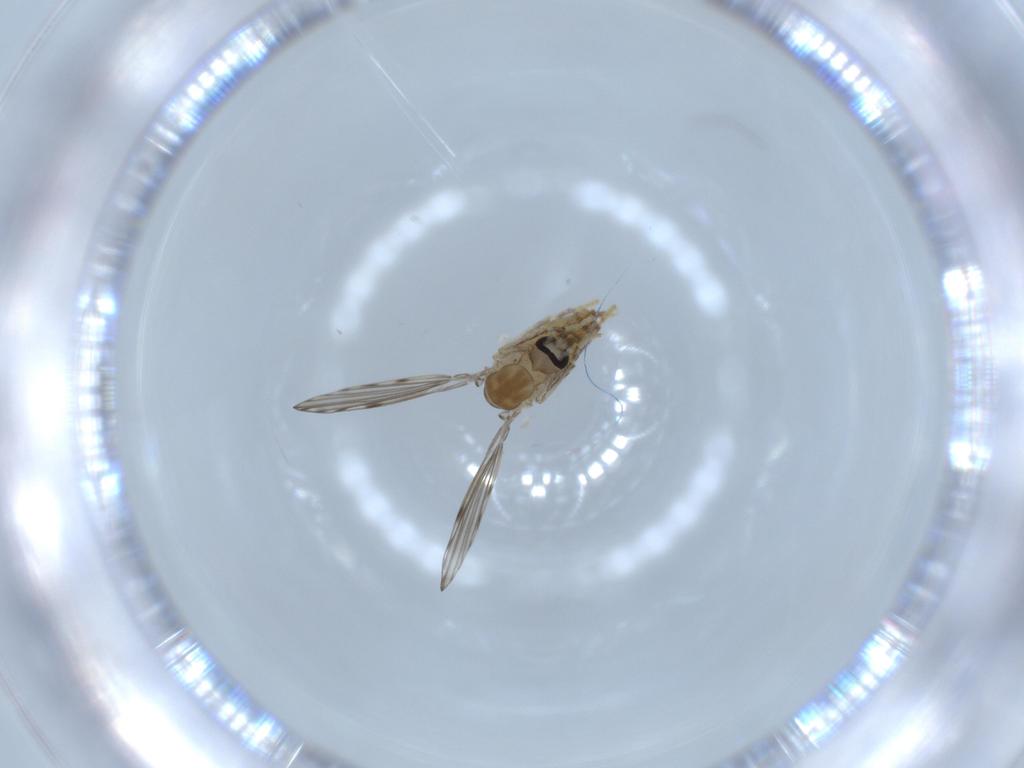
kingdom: Animalia
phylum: Arthropoda
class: Insecta
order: Diptera
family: Psychodidae
